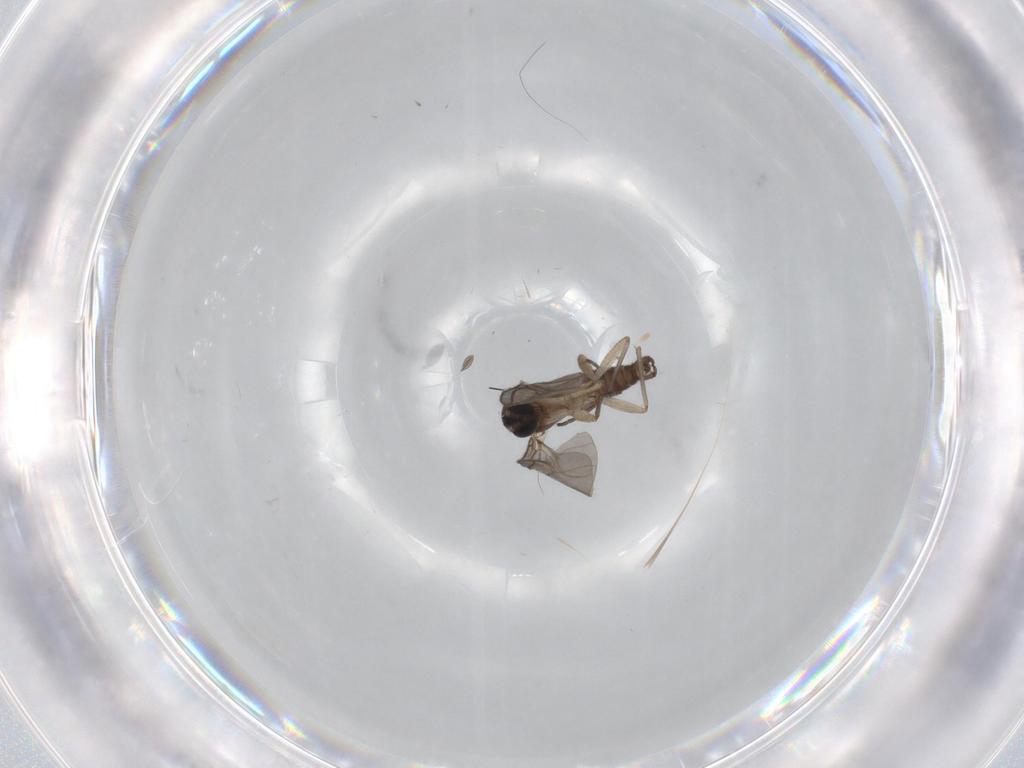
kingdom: Animalia
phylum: Arthropoda
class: Insecta
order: Diptera
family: Sciaridae
